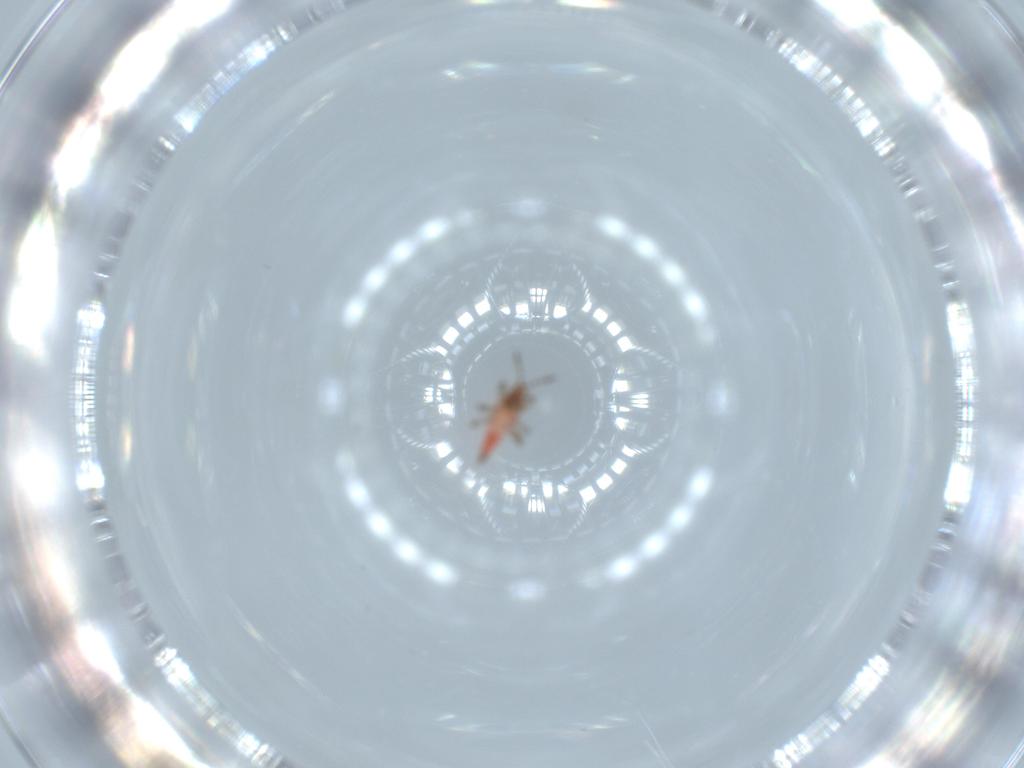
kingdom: Animalia
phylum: Arthropoda
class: Insecta
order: Thysanoptera
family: Phlaeothripidae
